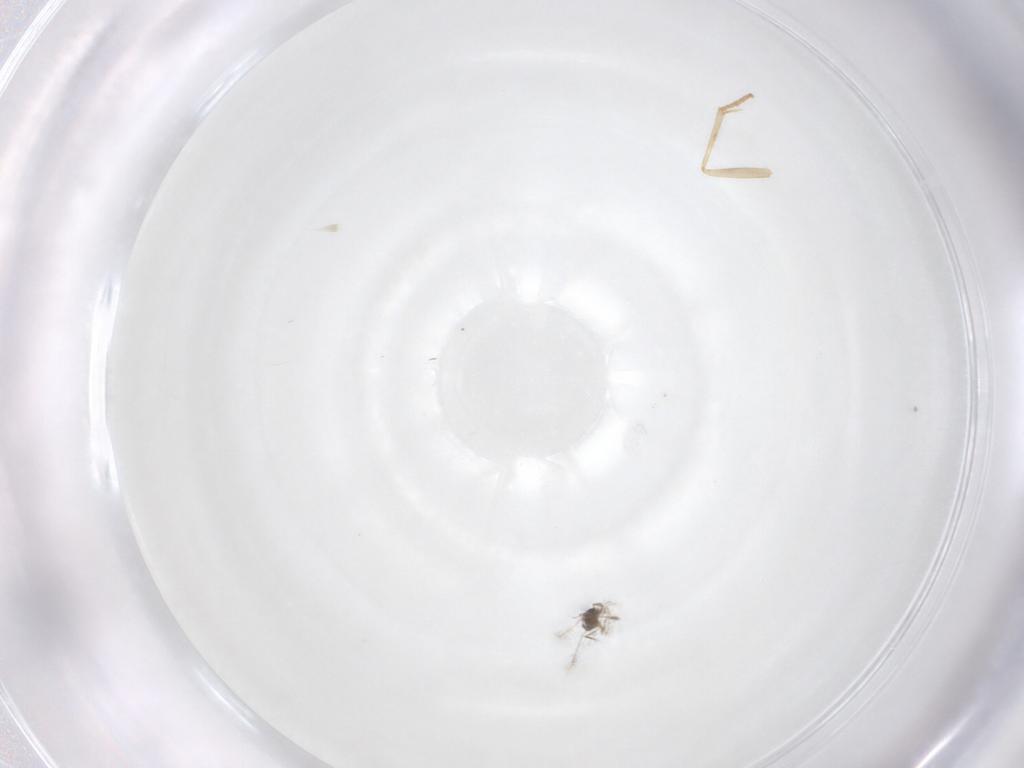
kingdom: Animalia
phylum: Arthropoda
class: Insecta
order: Hymenoptera
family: Mymaridae
